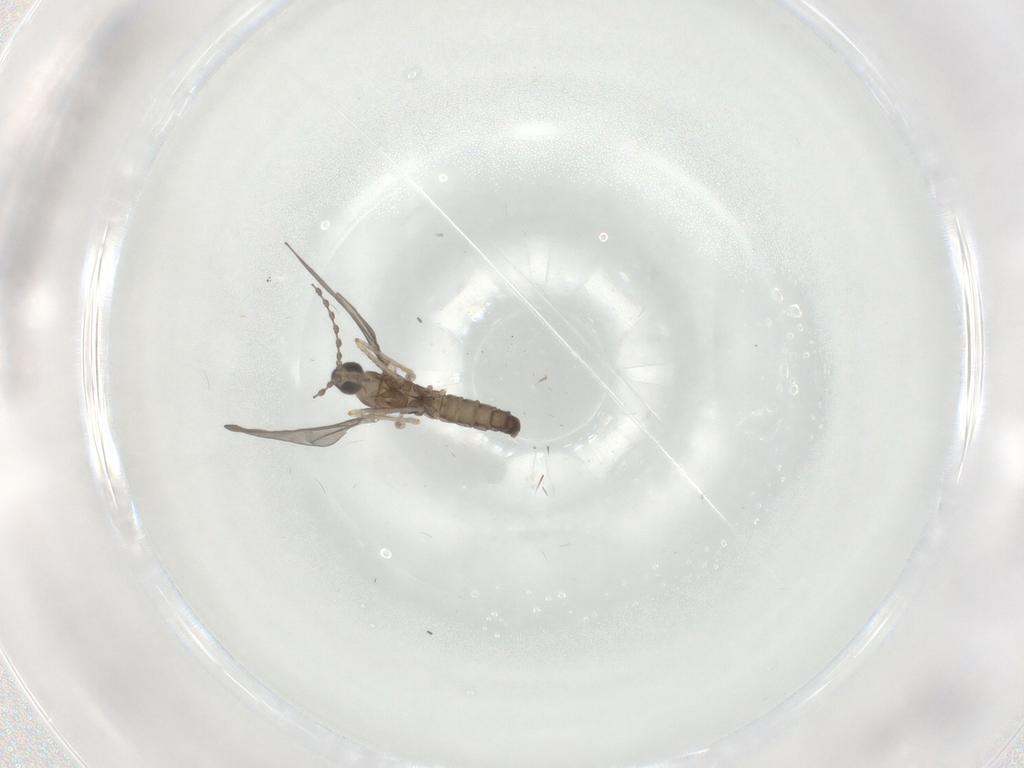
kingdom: Animalia
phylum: Arthropoda
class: Insecta
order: Diptera
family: Cecidomyiidae
